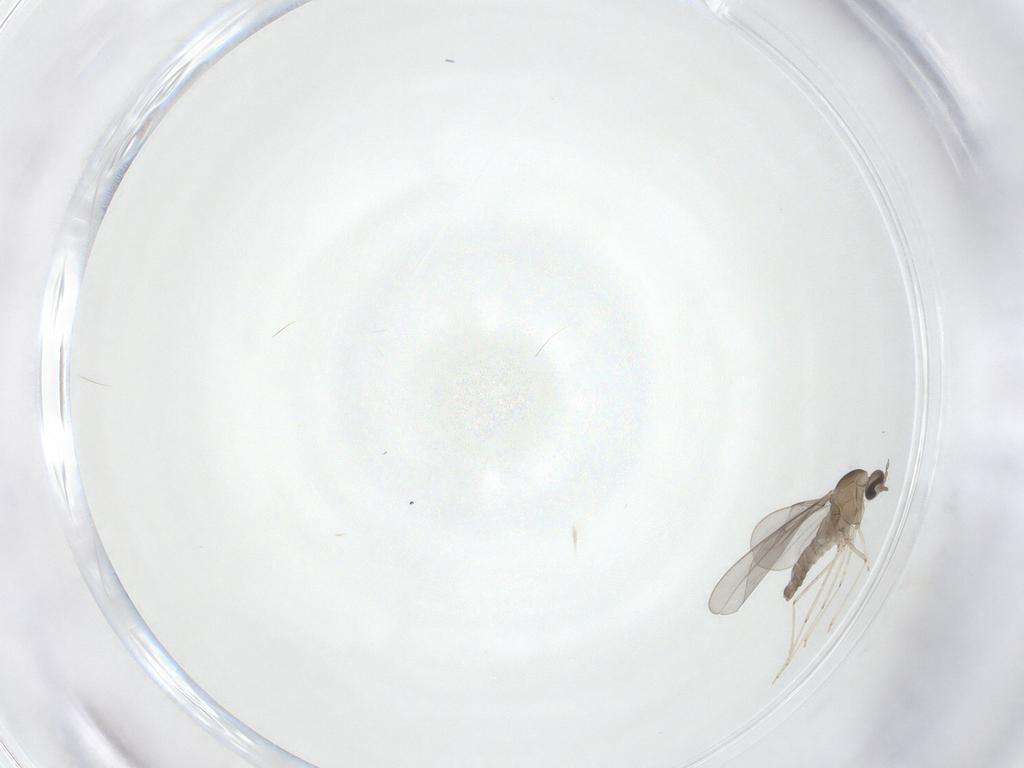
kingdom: Animalia
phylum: Arthropoda
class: Insecta
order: Diptera
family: Cecidomyiidae
